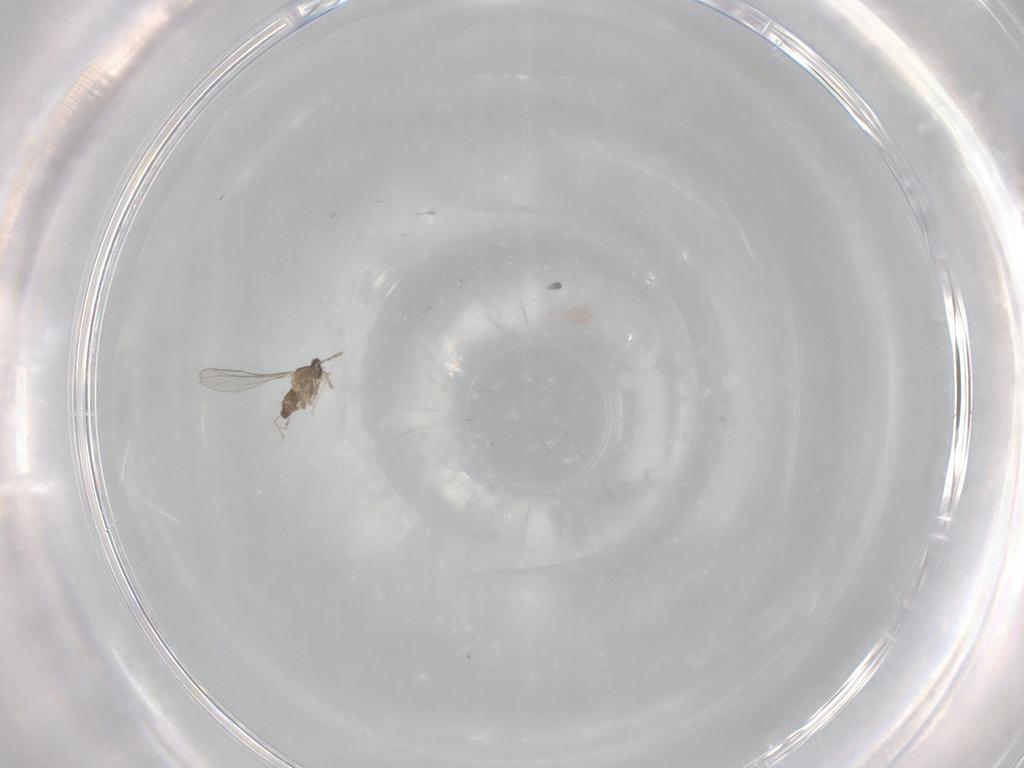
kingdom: Animalia
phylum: Arthropoda
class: Insecta
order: Diptera
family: Cecidomyiidae
